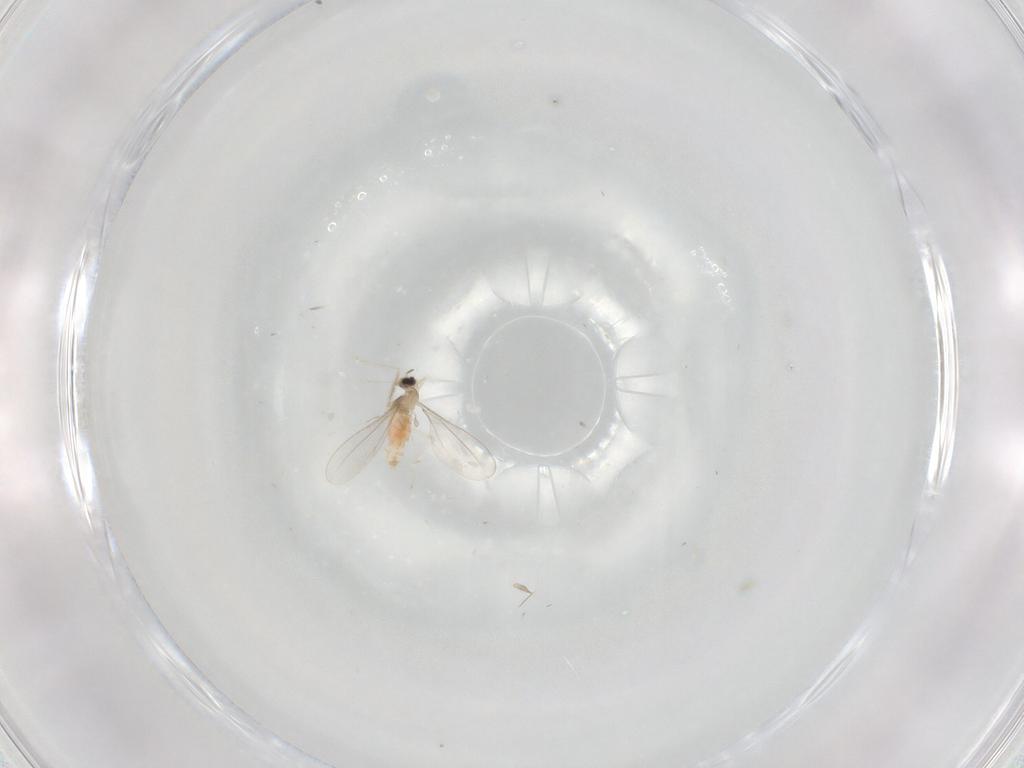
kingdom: Animalia
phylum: Arthropoda
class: Insecta
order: Diptera
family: Cecidomyiidae
